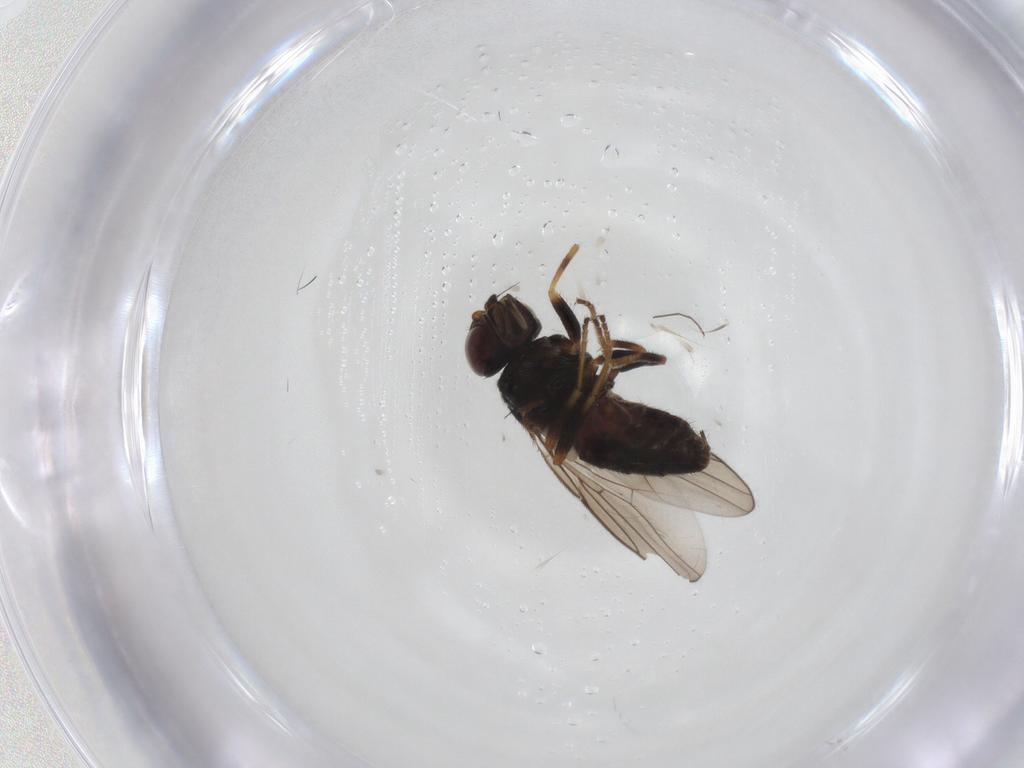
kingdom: Animalia
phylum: Arthropoda
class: Insecta
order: Diptera
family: Chloropidae
